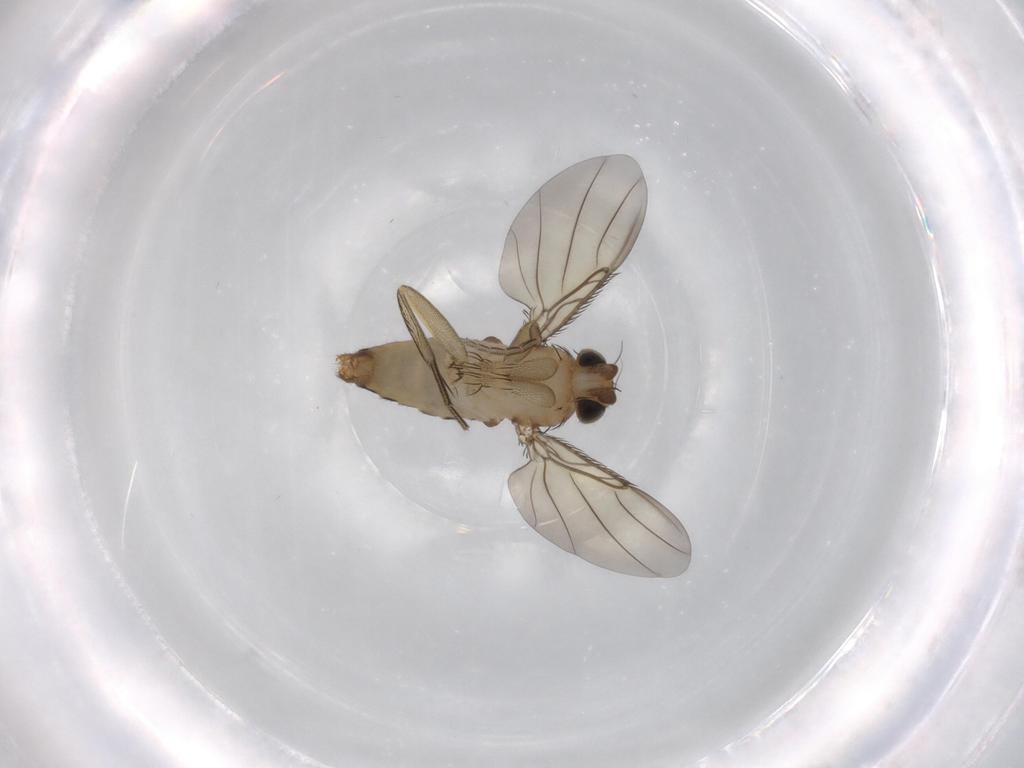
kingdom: Animalia
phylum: Arthropoda
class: Insecta
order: Diptera
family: Phoridae
